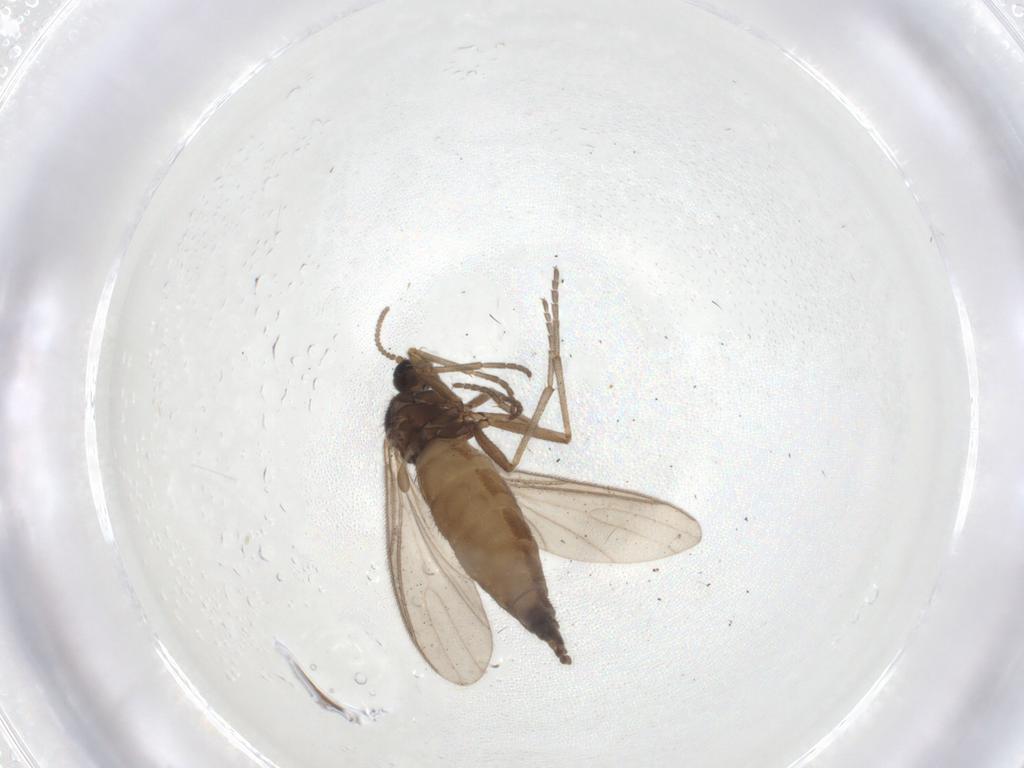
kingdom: Animalia
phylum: Arthropoda
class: Insecta
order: Diptera
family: Sciaridae
